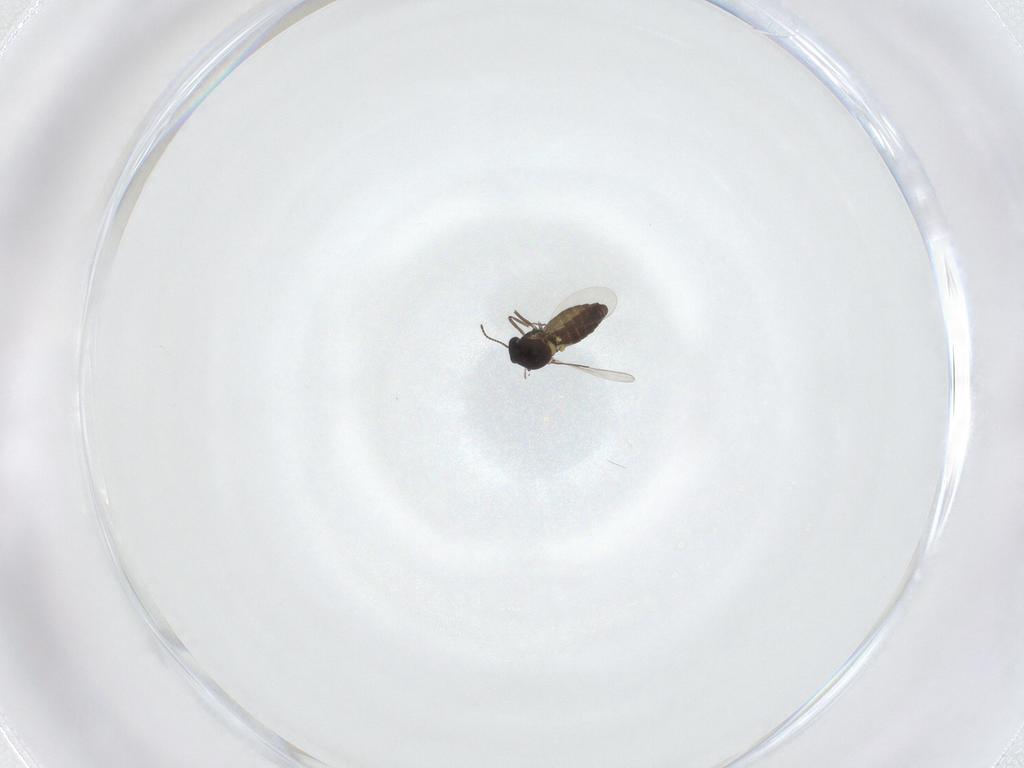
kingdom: Animalia
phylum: Arthropoda
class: Insecta
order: Diptera
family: Ceratopogonidae
